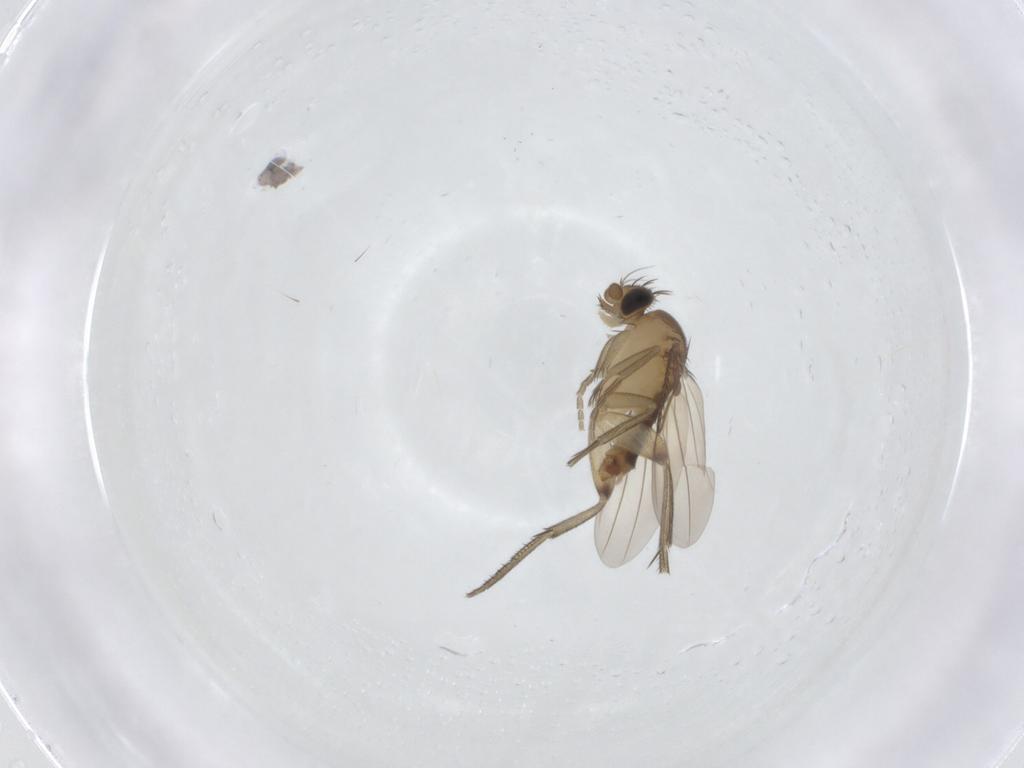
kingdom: Animalia
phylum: Arthropoda
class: Insecta
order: Diptera
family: Phoridae
